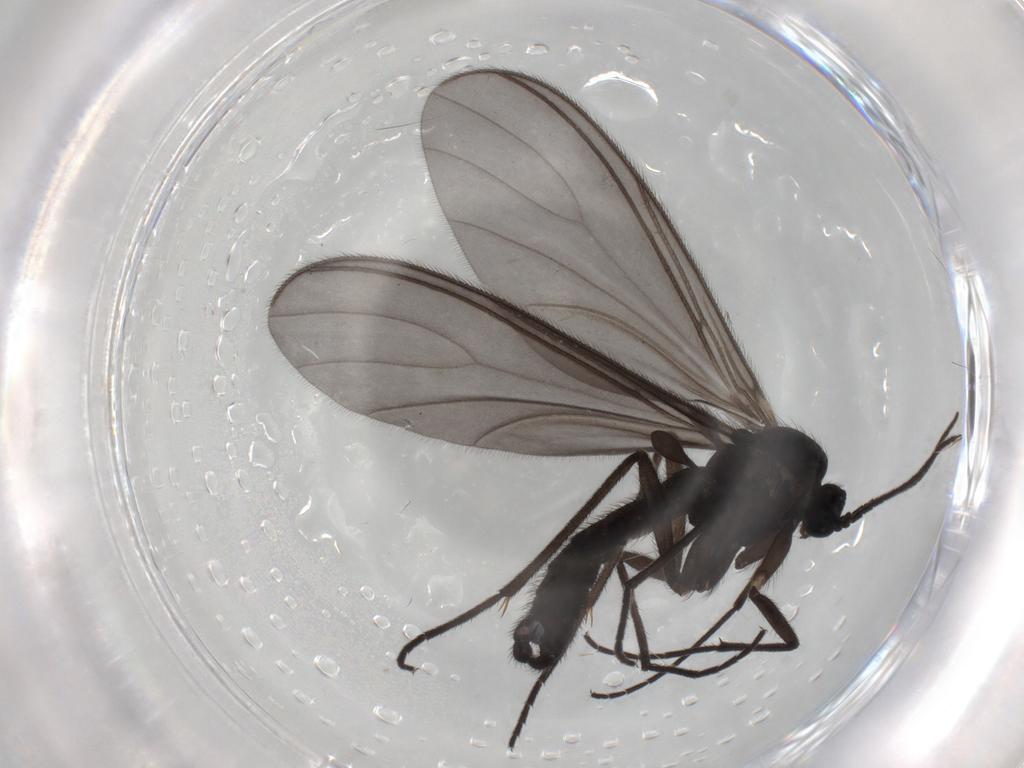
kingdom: Animalia
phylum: Arthropoda
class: Insecta
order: Diptera
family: Sciaridae
